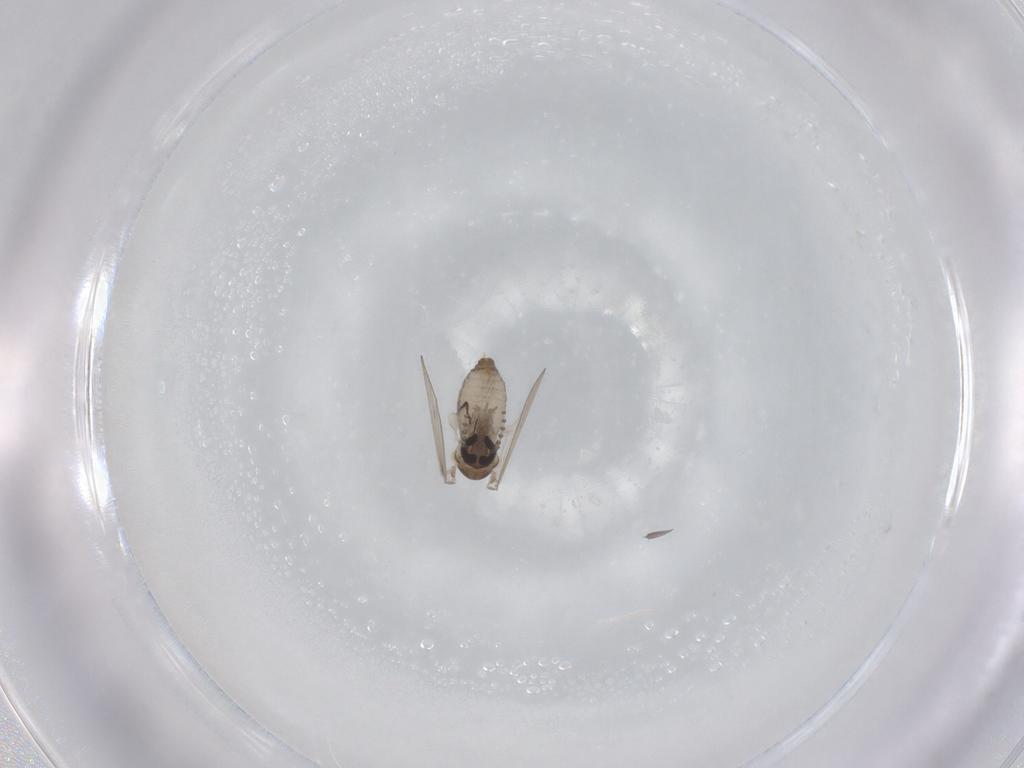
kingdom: Animalia
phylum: Arthropoda
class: Insecta
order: Diptera
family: Psychodidae
